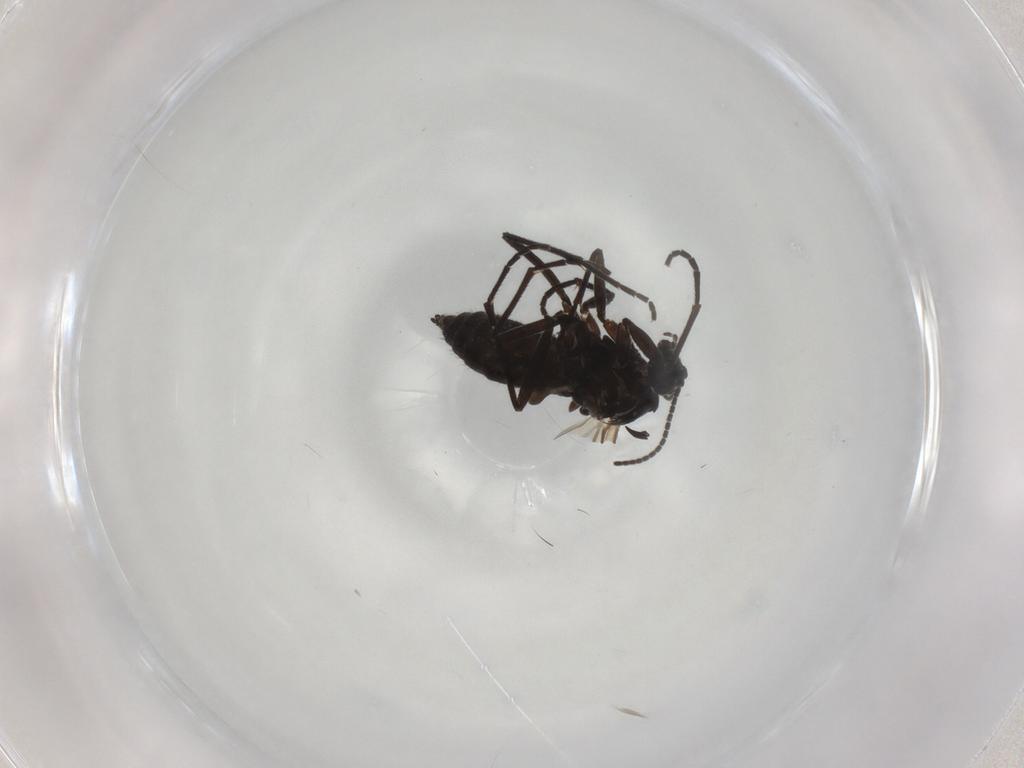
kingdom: Animalia
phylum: Arthropoda
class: Insecta
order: Diptera
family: Sciaridae
